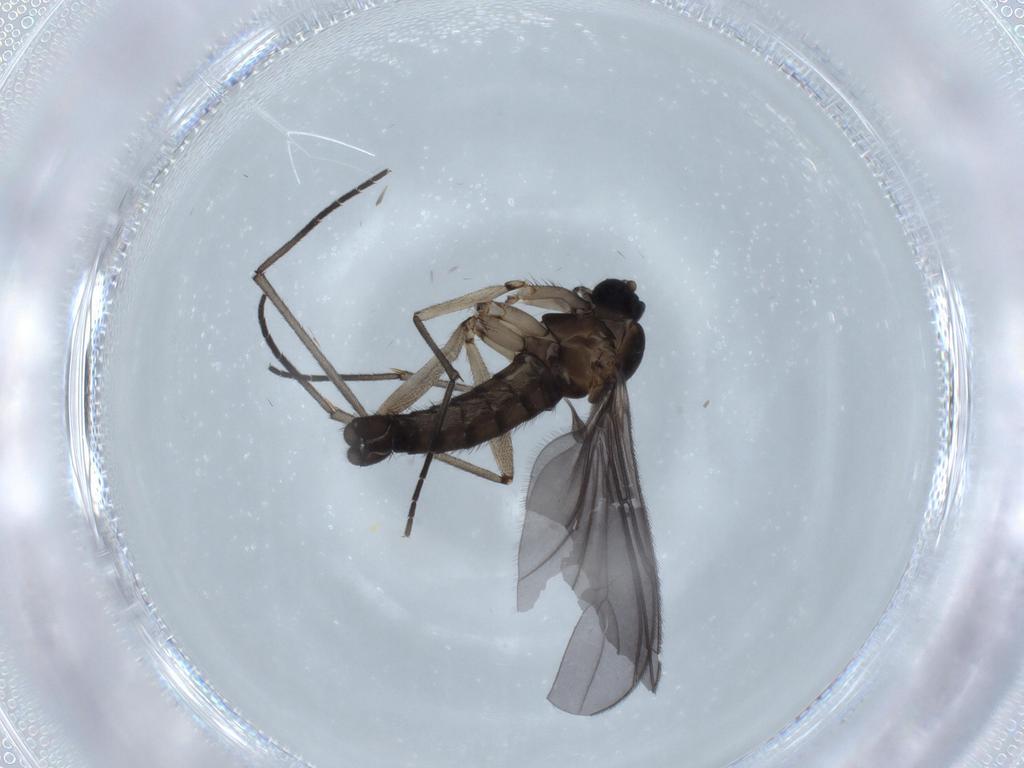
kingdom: Animalia
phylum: Arthropoda
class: Insecta
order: Diptera
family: Sciaridae
